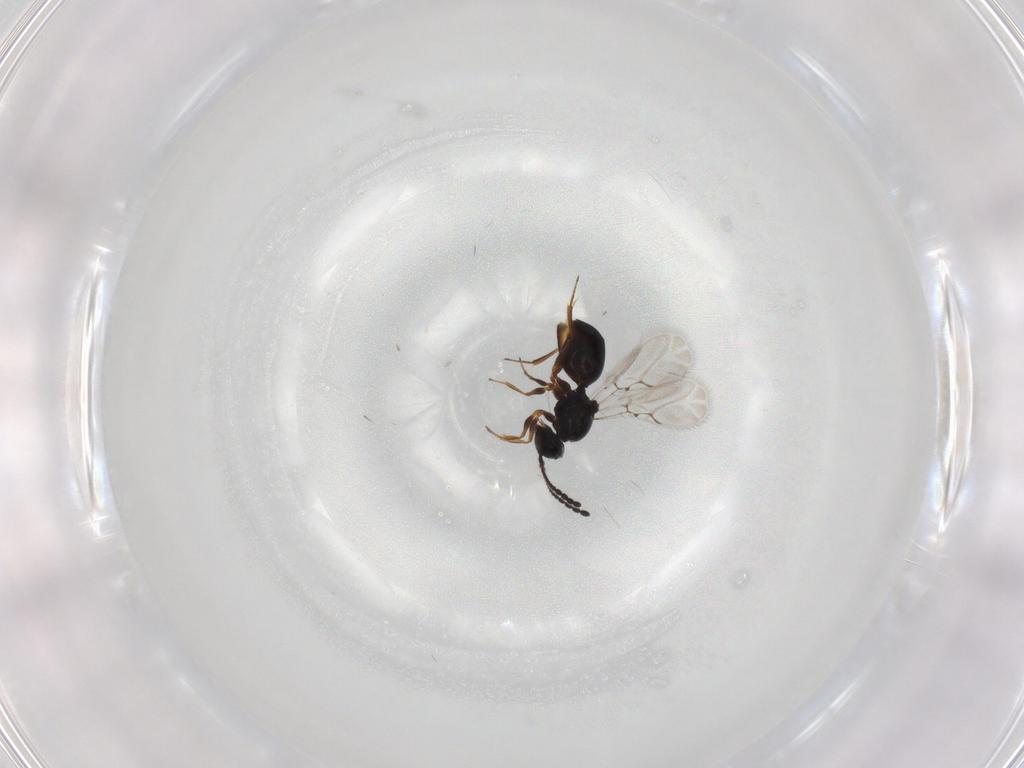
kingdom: Animalia
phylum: Arthropoda
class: Insecta
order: Hymenoptera
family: Figitidae
